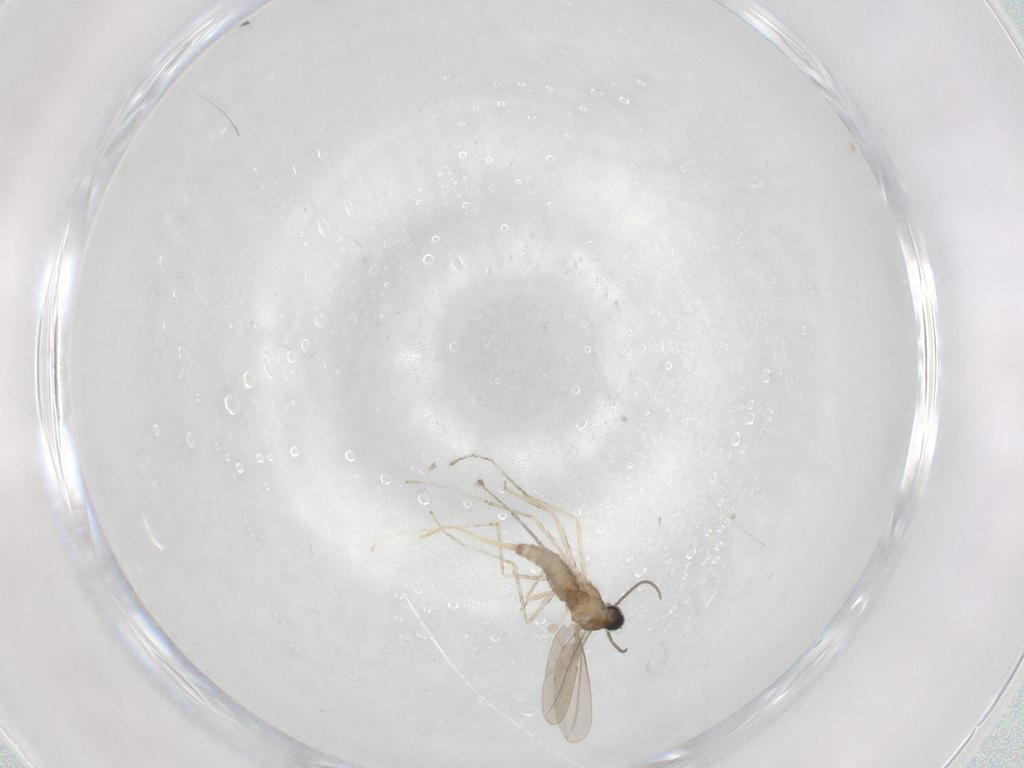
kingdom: Animalia
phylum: Arthropoda
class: Insecta
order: Diptera
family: Cecidomyiidae
